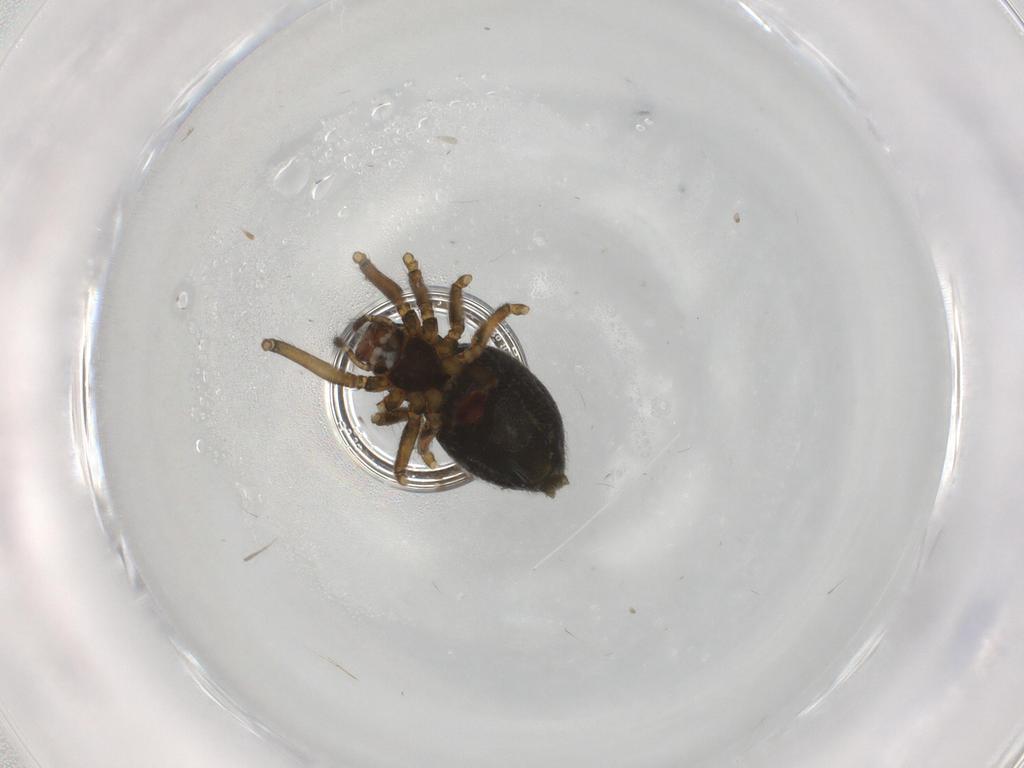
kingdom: Animalia
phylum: Arthropoda
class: Arachnida
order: Araneae
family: Linyphiidae
